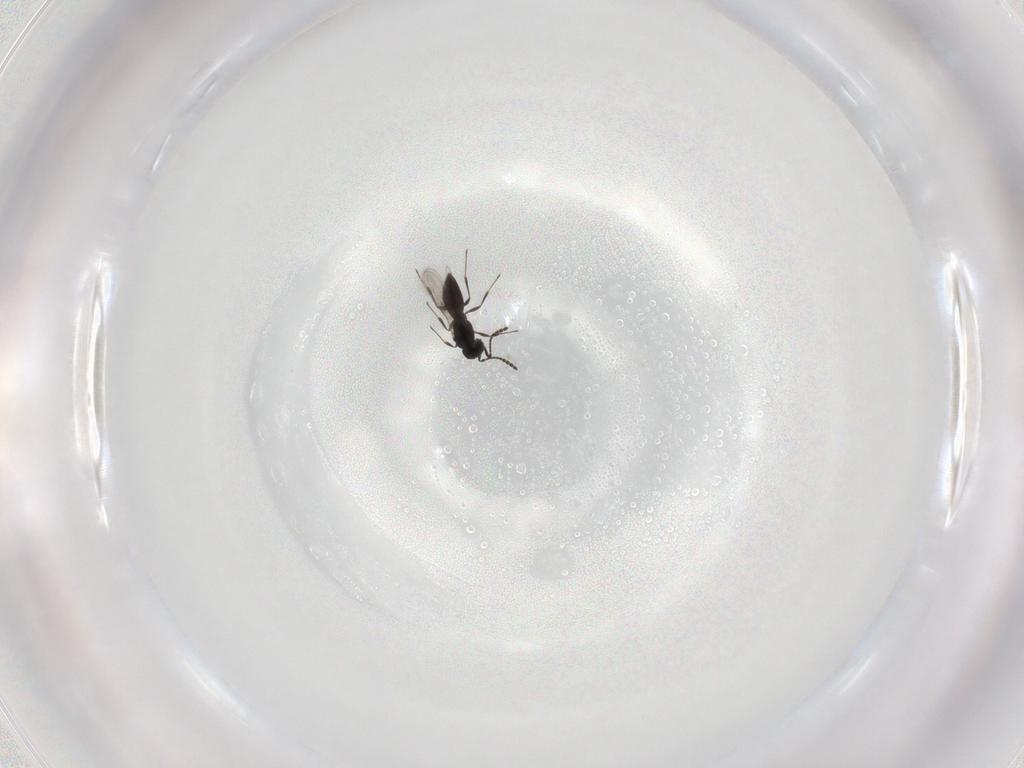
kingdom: Animalia
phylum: Arthropoda
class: Insecta
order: Hymenoptera
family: Scelionidae
